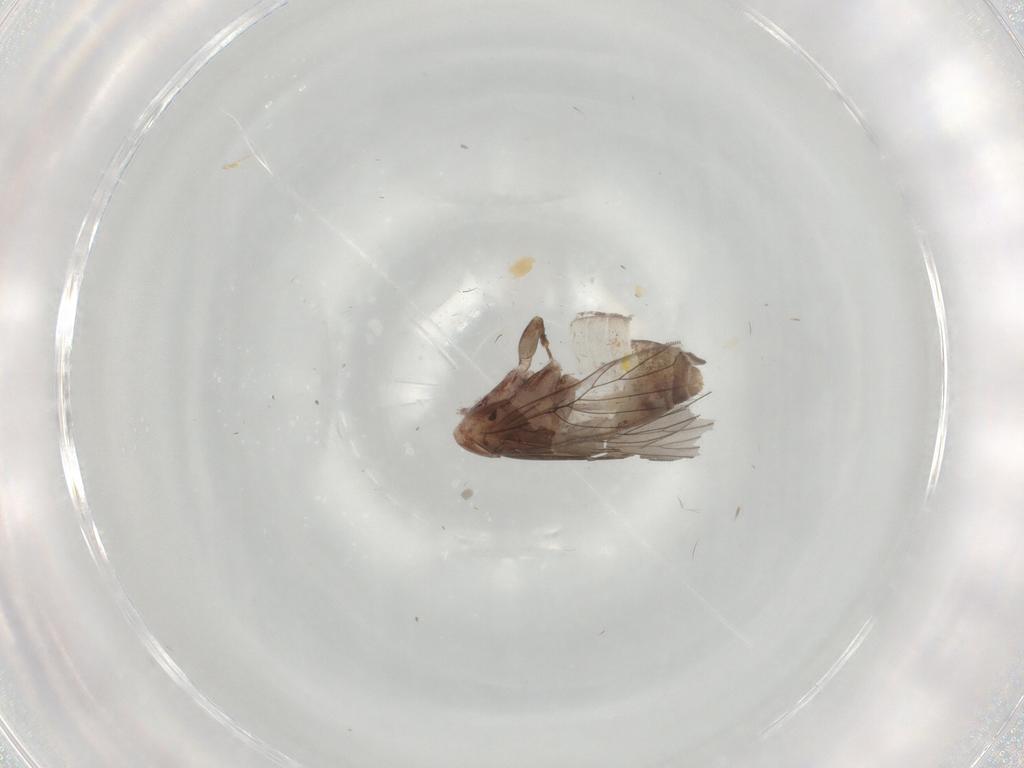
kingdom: Animalia
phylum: Arthropoda
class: Insecta
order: Psocodea
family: Lepidopsocidae
